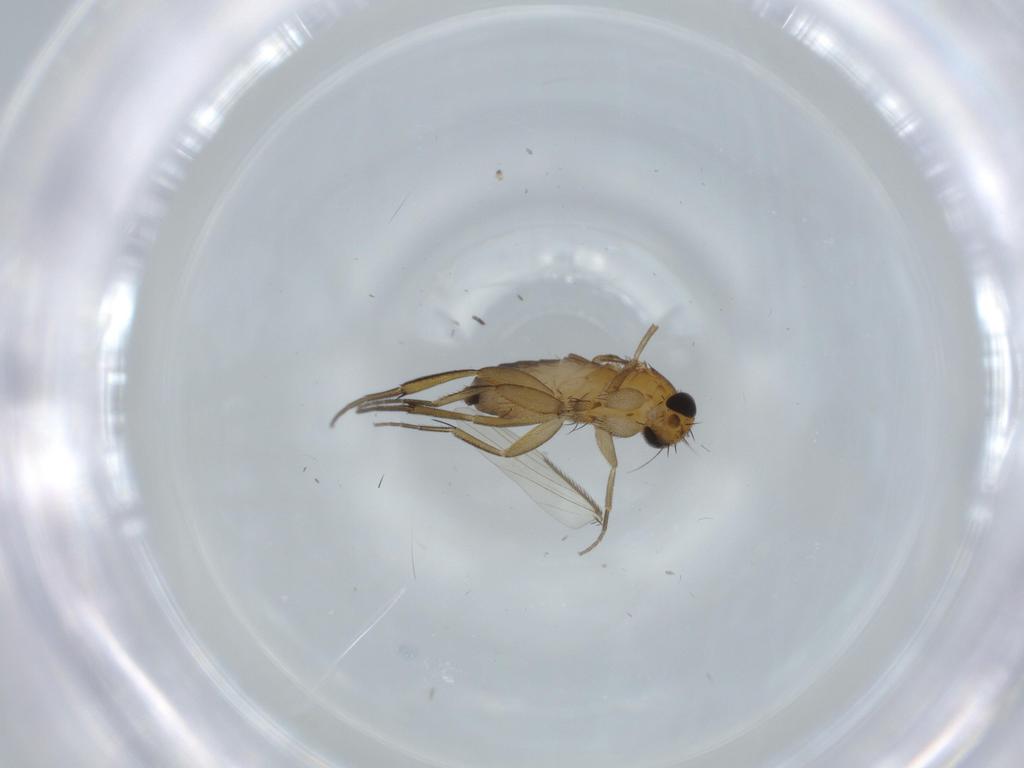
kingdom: Animalia
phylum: Arthropoda
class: Insecta
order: Diptera
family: Phoridae
